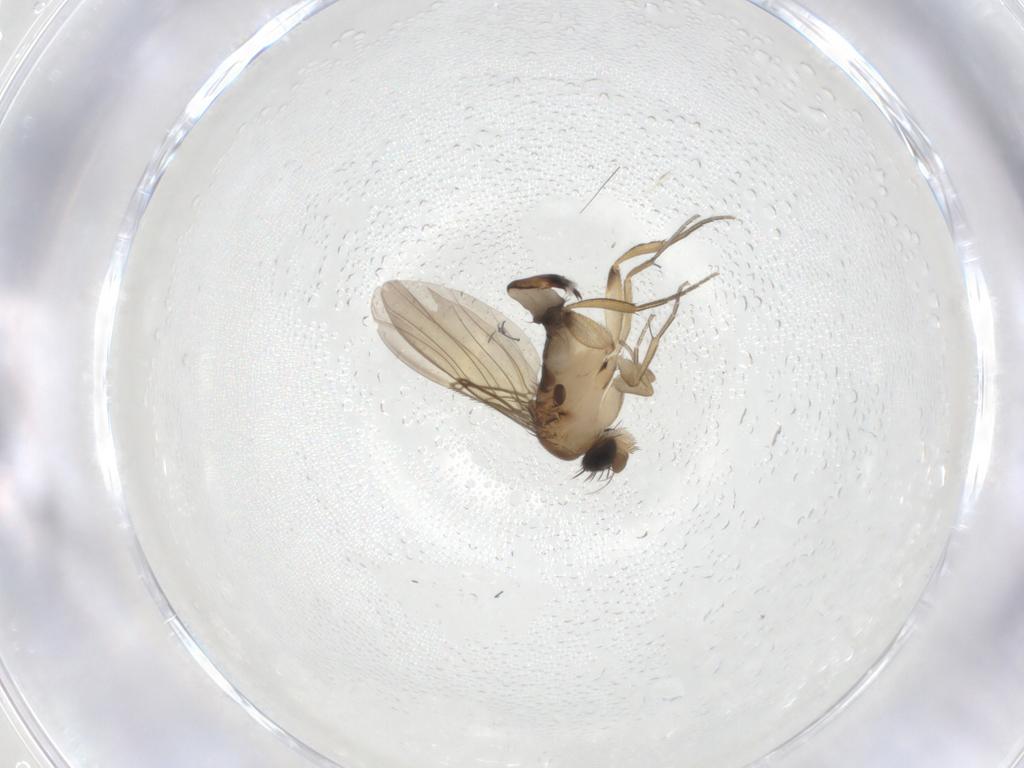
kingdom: Animalia
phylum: Arthropoda
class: Insecta
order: Diptera
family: Phoridae
